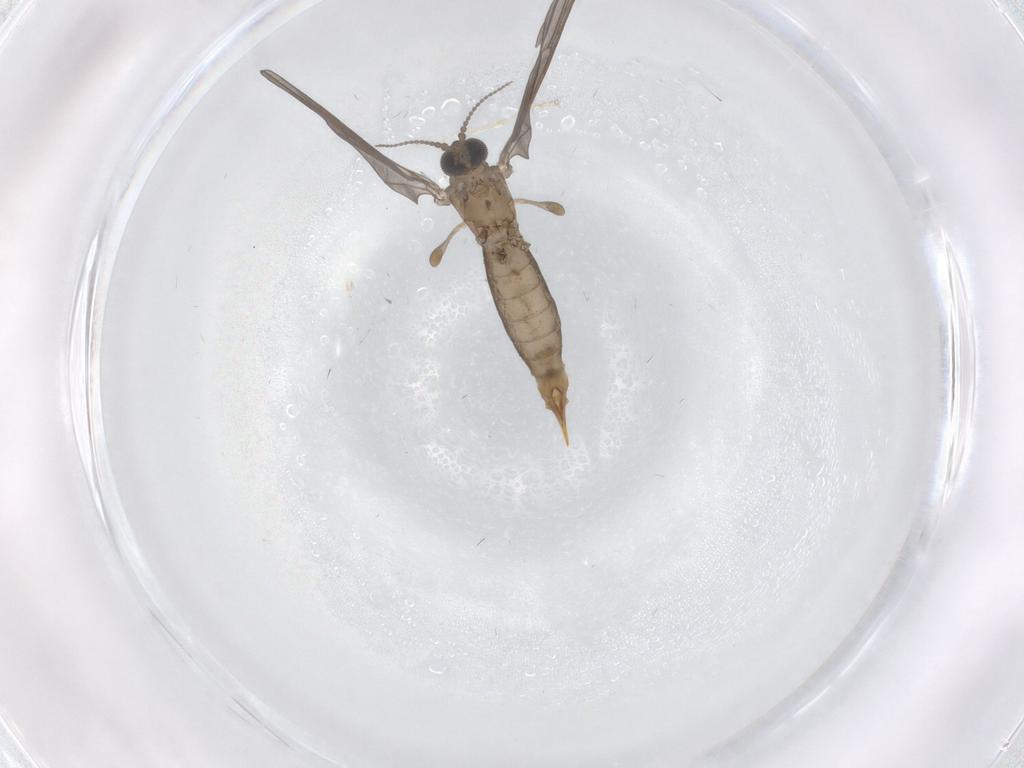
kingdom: Animalia
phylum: Arthropoda
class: Insecta
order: Diptera
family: Limoniidae
